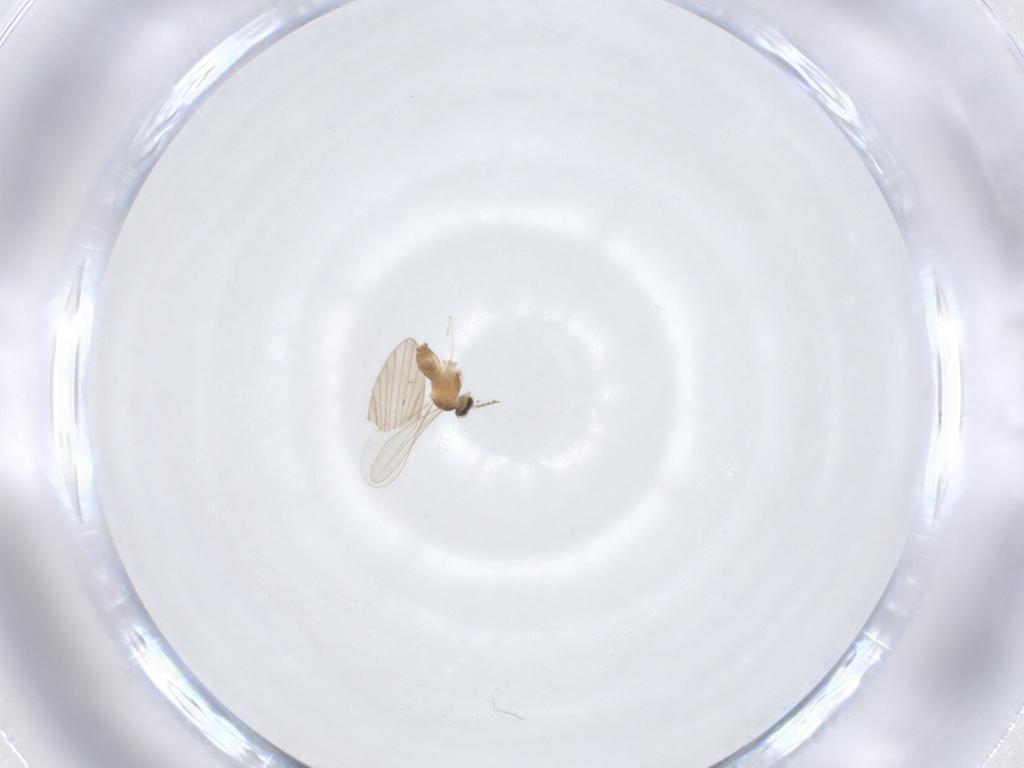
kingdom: Animalia
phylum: Arthropoda
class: Insecta
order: Diptera
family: Cecidomyiidae
